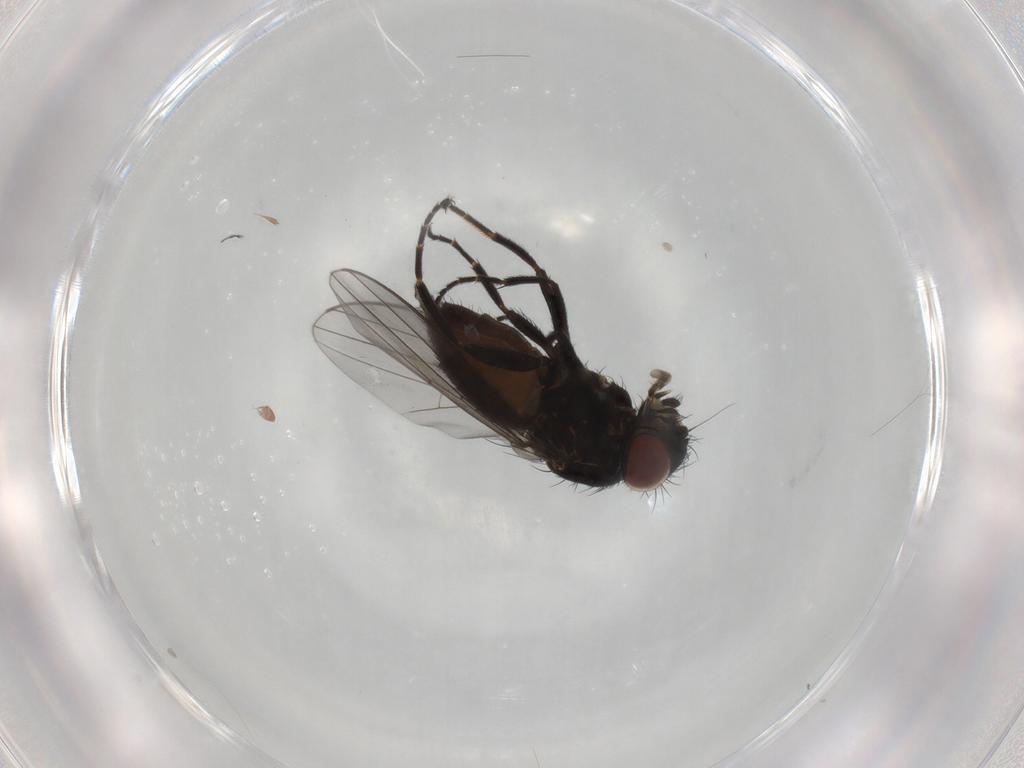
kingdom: Animalia
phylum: Arthropoda
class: Insecta
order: Diptera
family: Milichiidae
